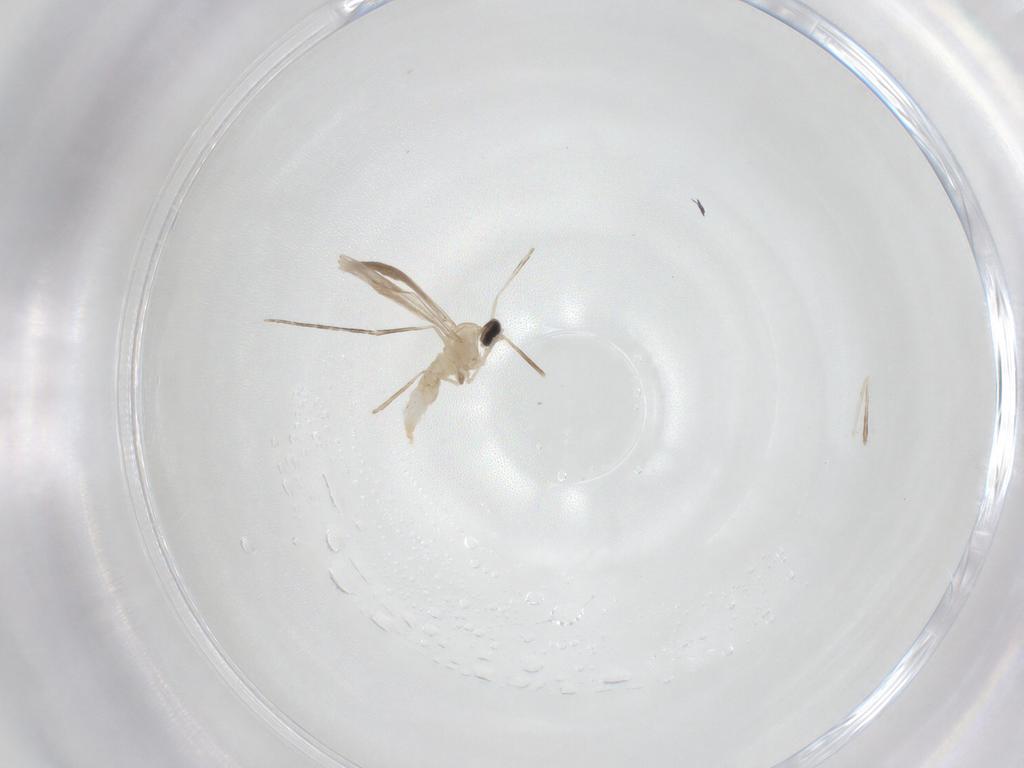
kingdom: Animalia
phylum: Arthropoda
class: Insecta
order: Diptera
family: Cecidomyiidae
